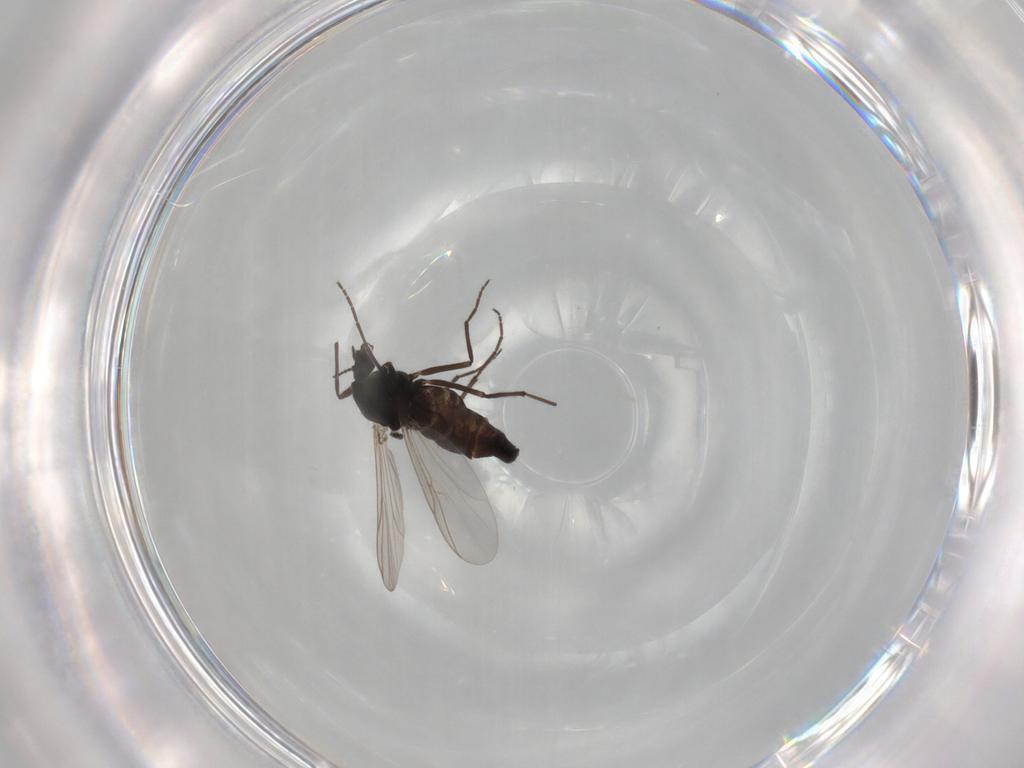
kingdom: Animalia
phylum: Arthropoda
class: Insecta
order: Diptera
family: Chironomidae
